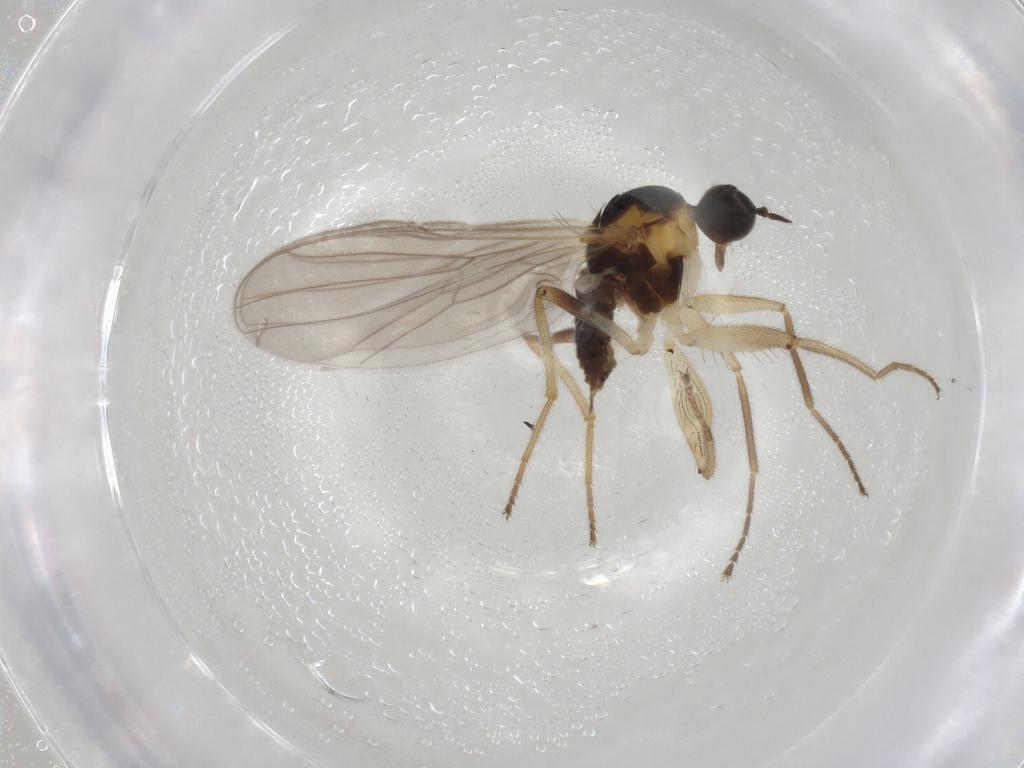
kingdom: Animalia
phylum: Arthropoda
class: Insecta
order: Diptera
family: Hybotidae
